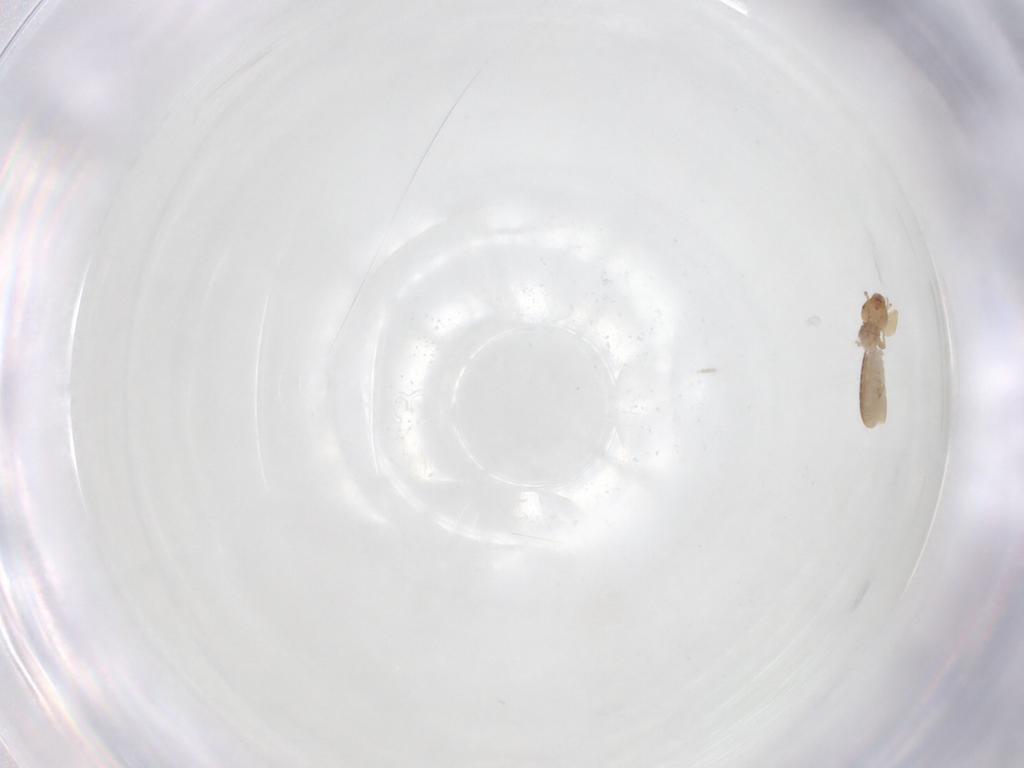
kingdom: Animalia
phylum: Arthropoda
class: Insecta
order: Psocodea
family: Liposcelididae
